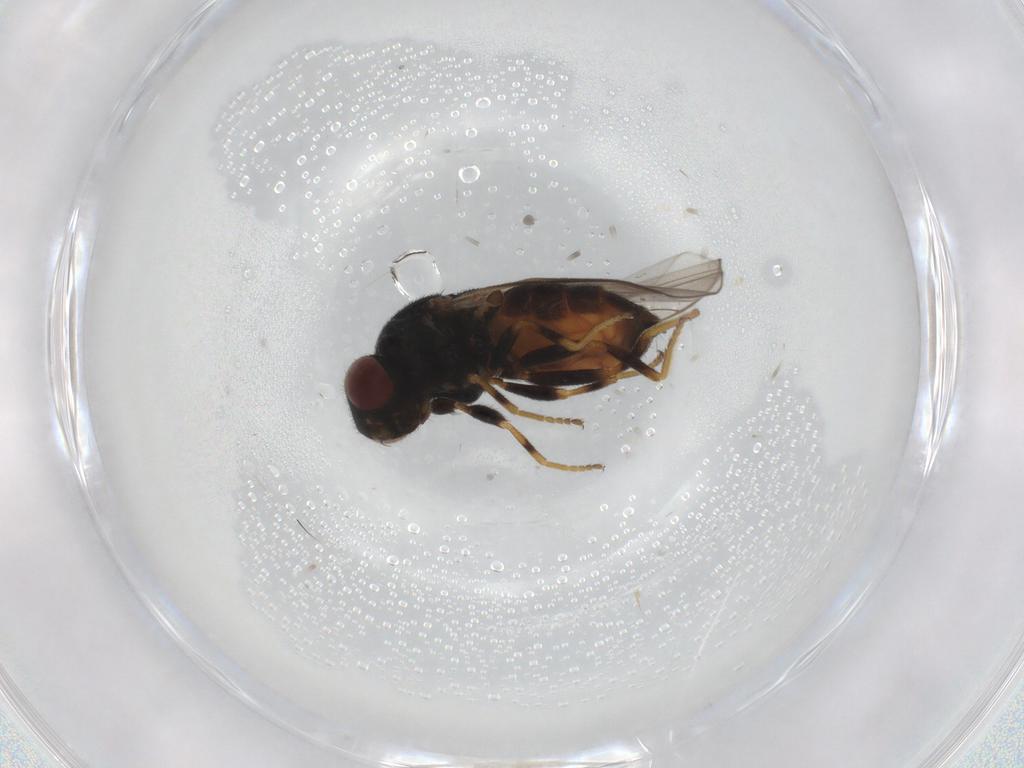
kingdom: Animalia
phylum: Arthropoda
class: Insecta
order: Diptera
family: Chloropidae
